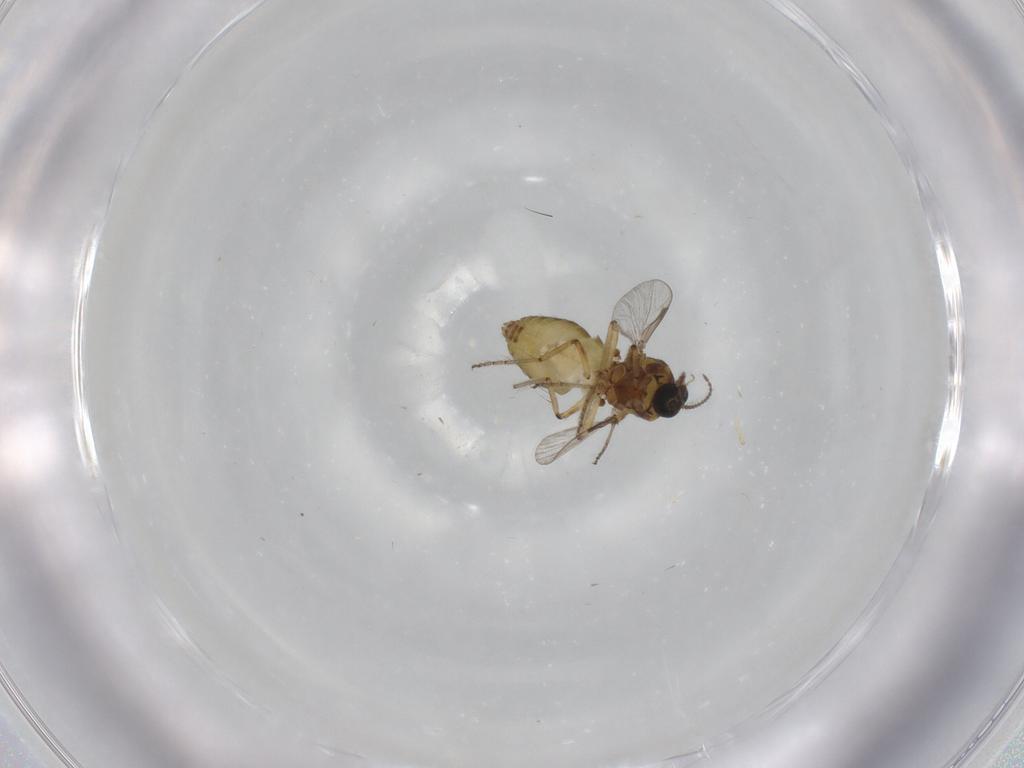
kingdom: Animalia
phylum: Arthropoda
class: Insecta
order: Diptera
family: Ceratopogonidae
